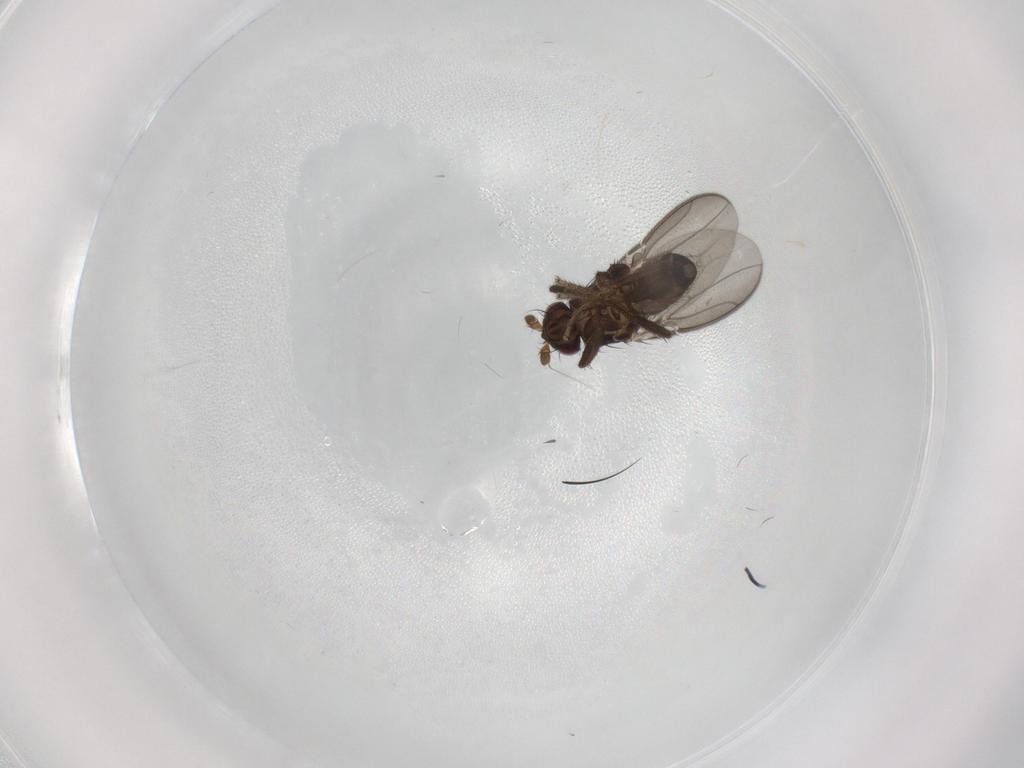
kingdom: Animalia
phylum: Arthropoda
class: Insecta
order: Diptera
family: Sphaeroceridae
